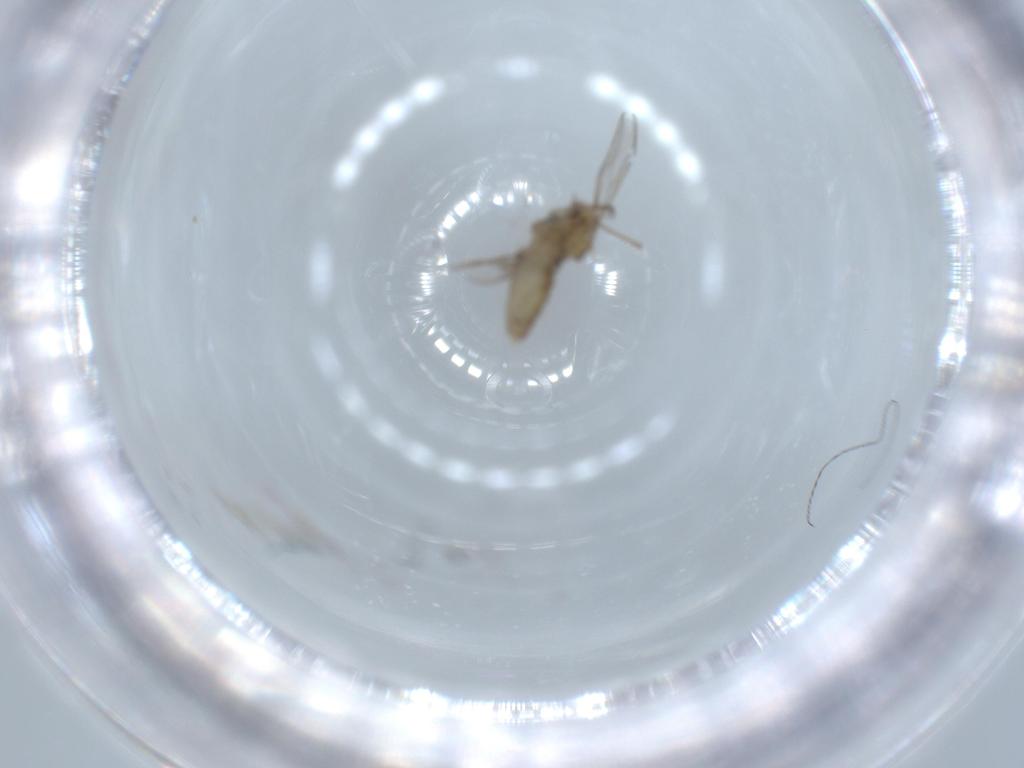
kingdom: Animalia
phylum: Arthropoda
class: Insecta
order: Diptera
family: Chironomidae
